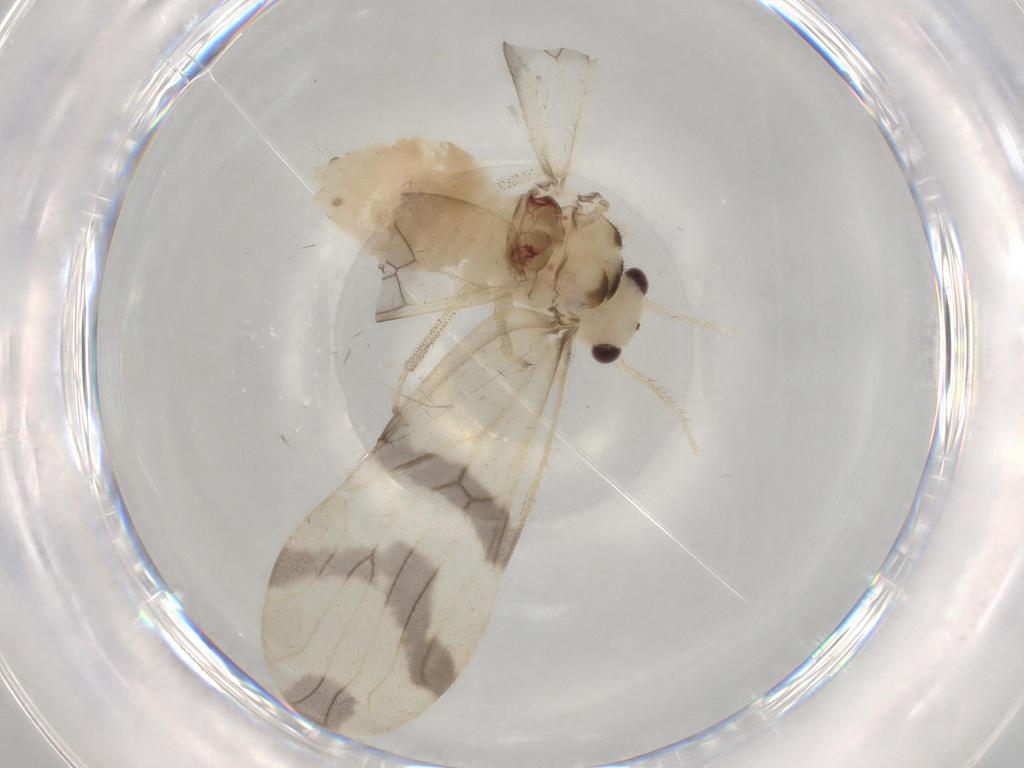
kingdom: Animalia
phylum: Arthropoda
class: Insecta
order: Psocodea
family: Amphipsocidae
